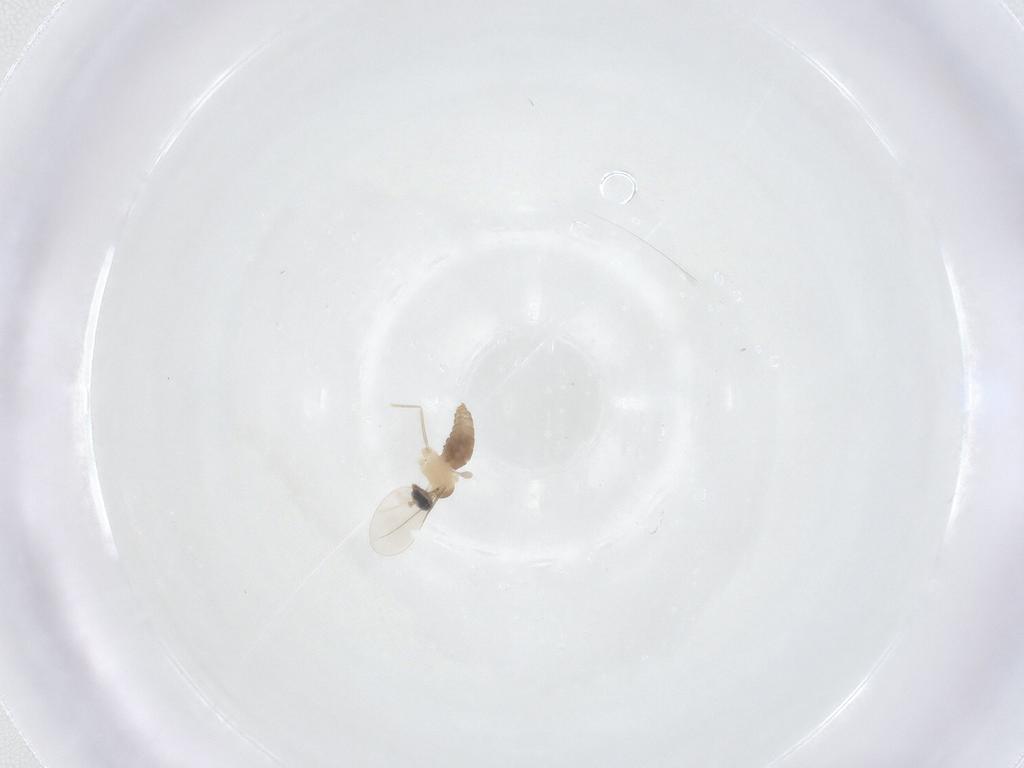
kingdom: Animalia
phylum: Arthropoda
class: Insecta
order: Diptera
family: Cecidomyiidae
